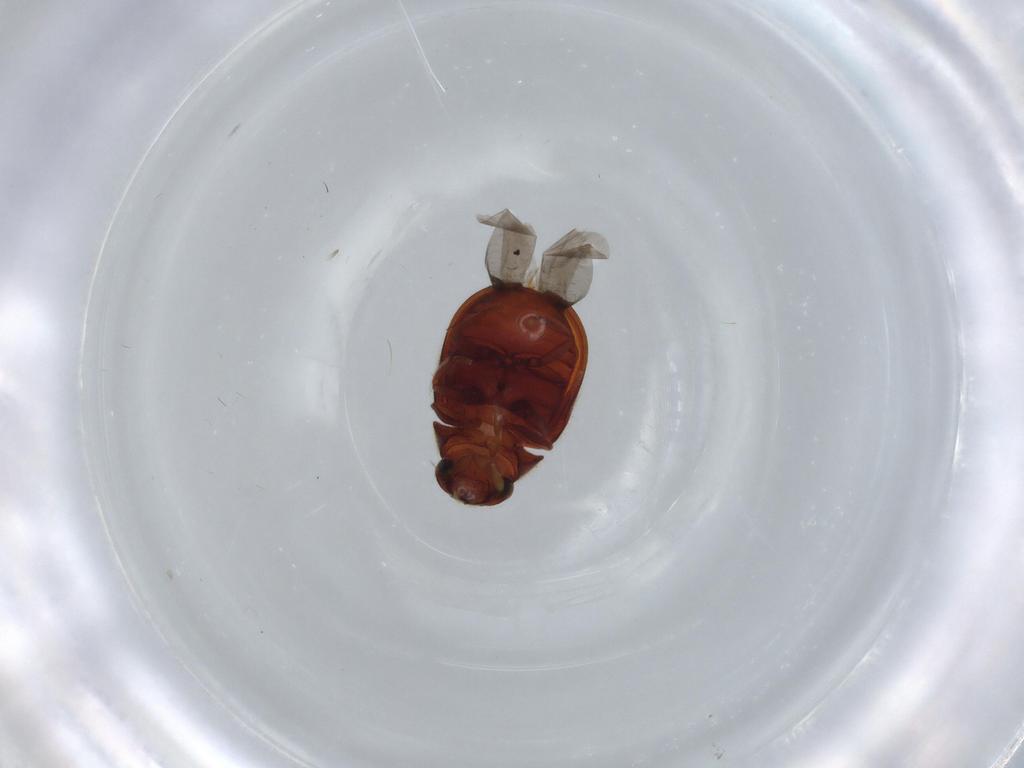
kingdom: Animalia
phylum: Arthropoda
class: Insecta
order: Coleoptera
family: Ptinidae
